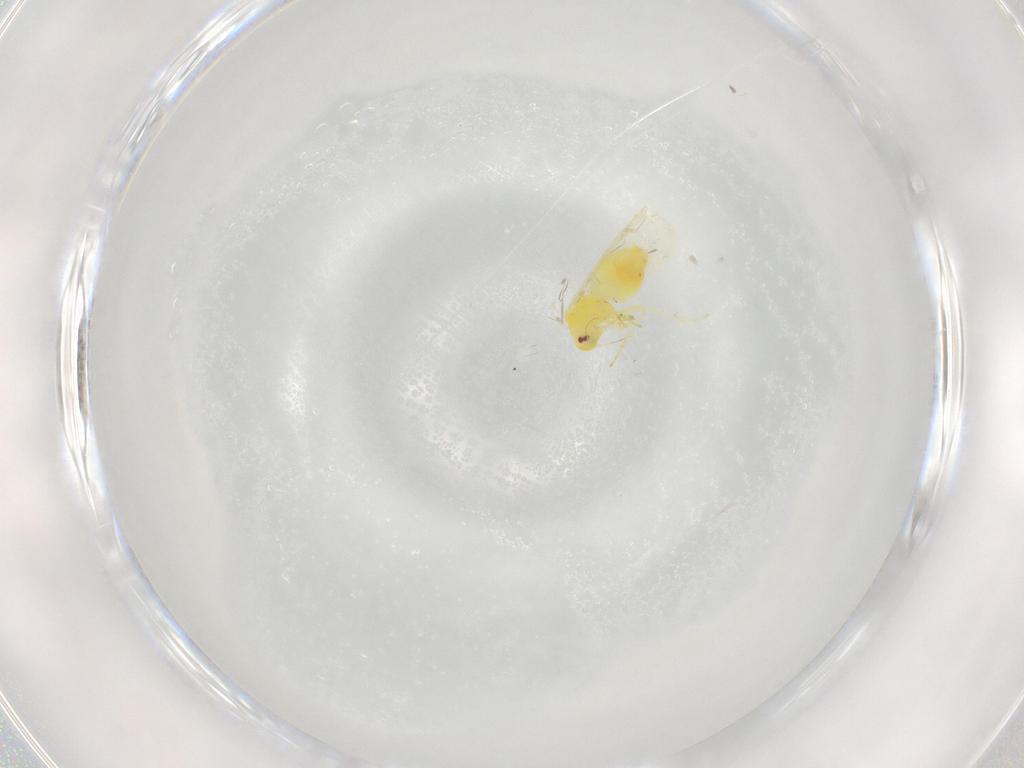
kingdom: Animalia
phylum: Arthropoda
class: Insecta
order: Hemiptera
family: Aleyrodidae
